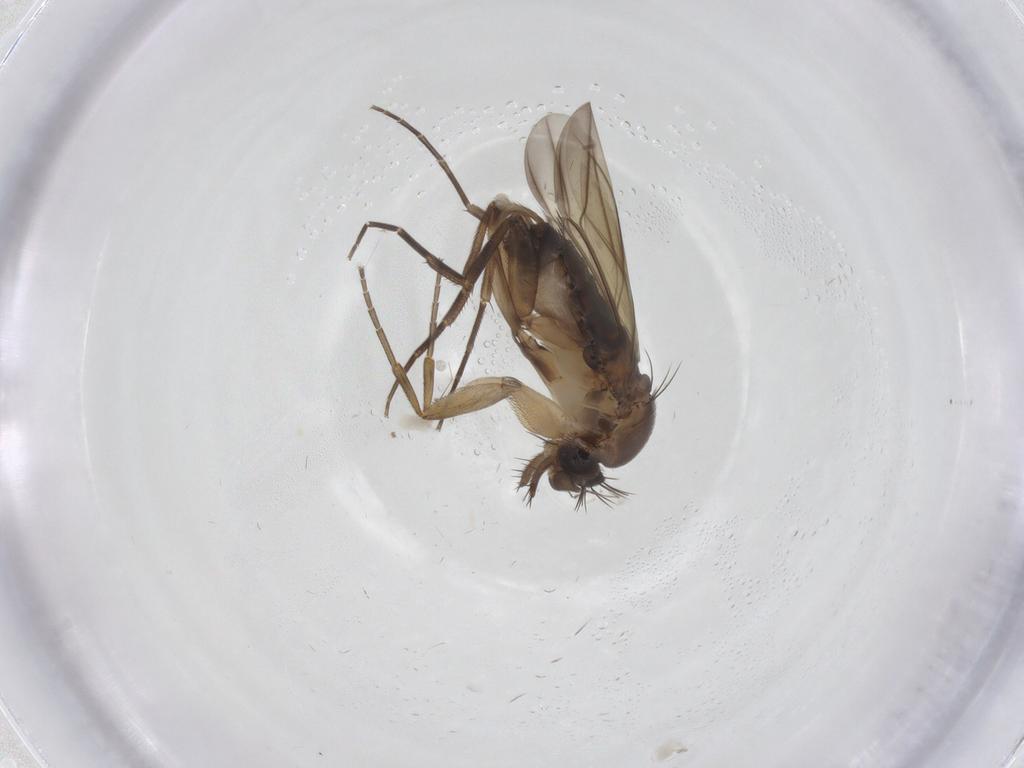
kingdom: Animalia
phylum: Arthropoda
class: Insecta
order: Diptera
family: Phoridae
